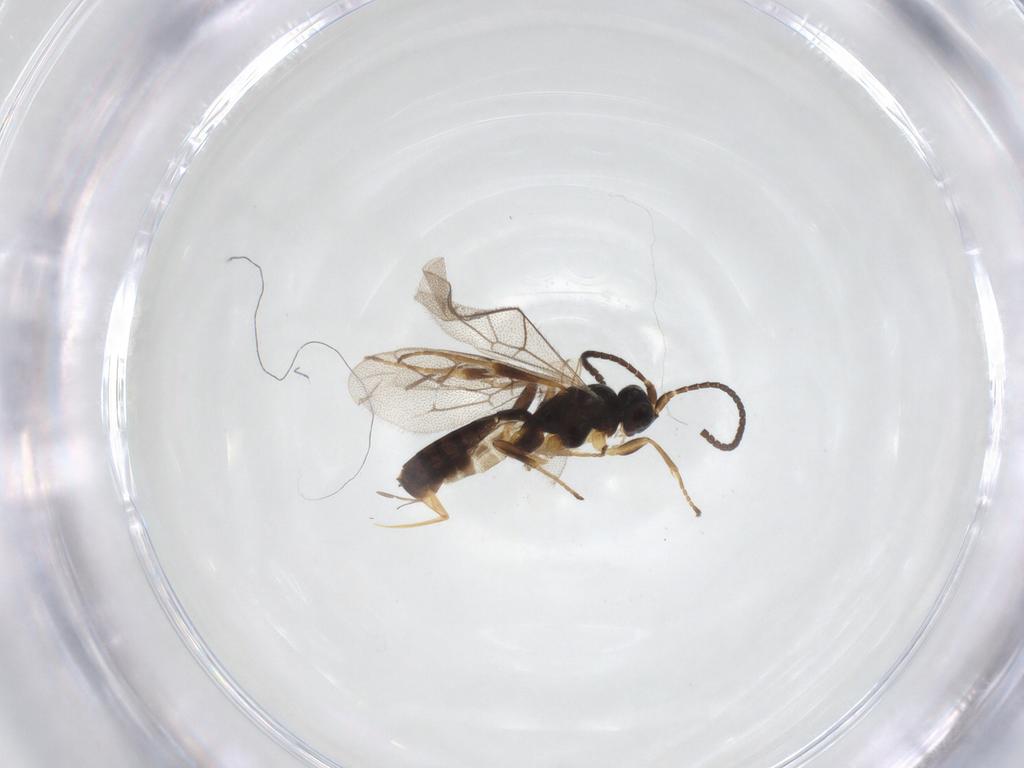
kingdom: Animalia
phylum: Arthropoda
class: Insecta
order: Hymenoptera
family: Ichneumonidae
